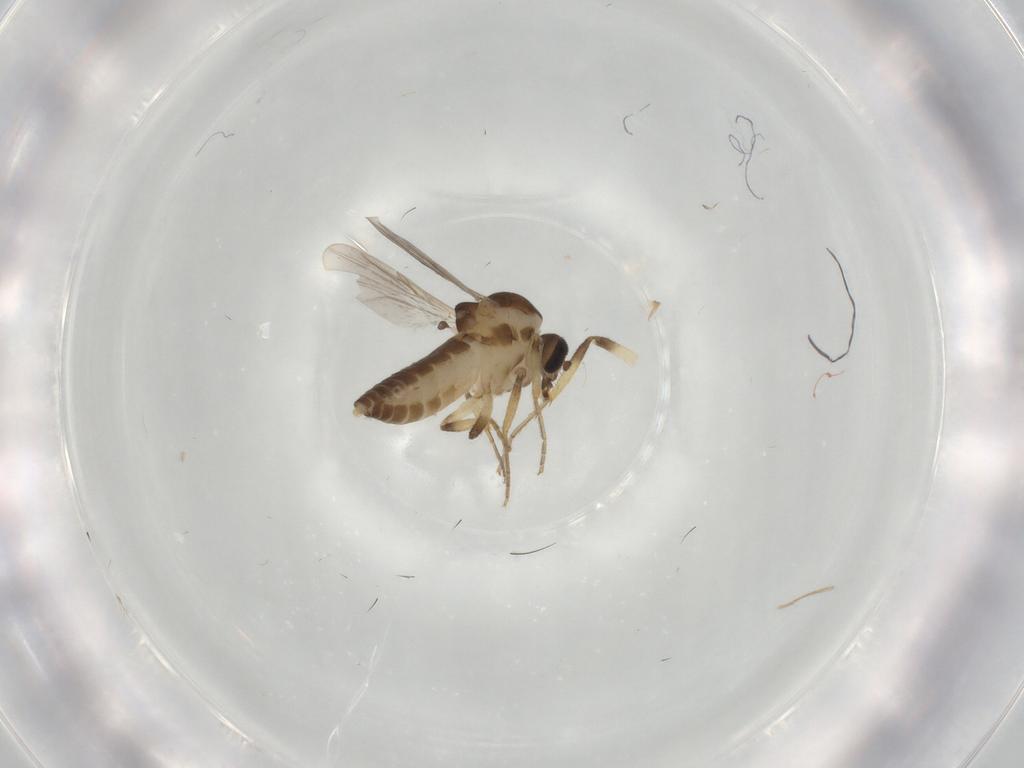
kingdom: Animalia
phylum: Arthropoda
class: Insecta
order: Diptera
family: Ceratopogonidae
